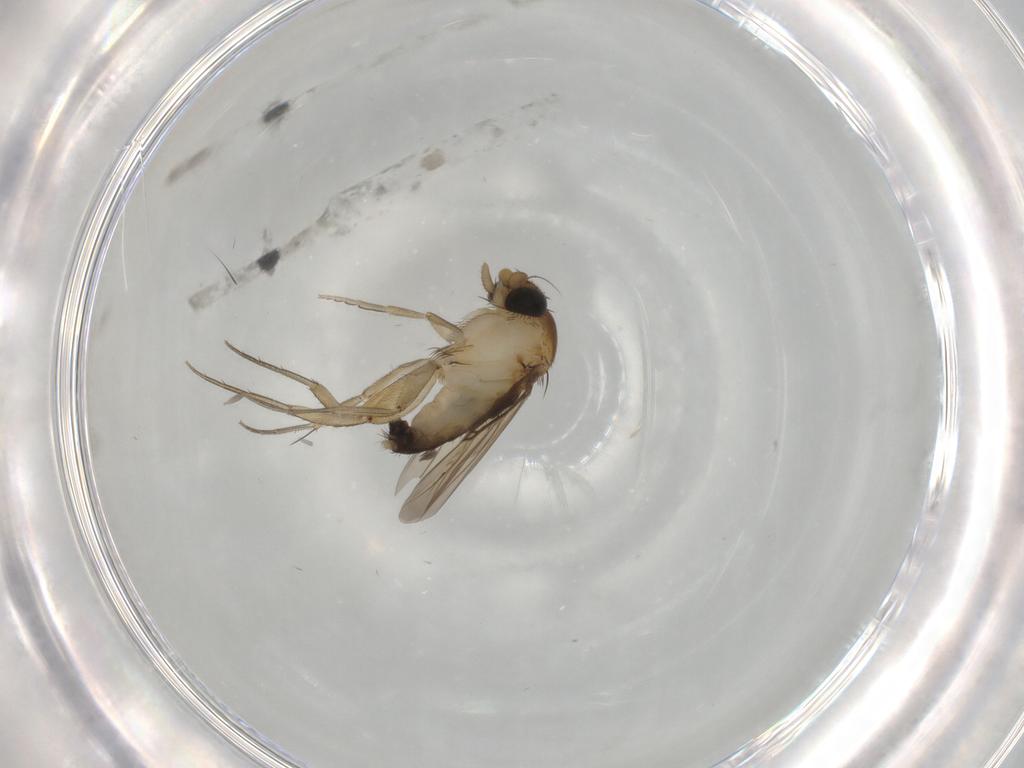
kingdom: Animalia
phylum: Arthropoda
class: Insecta
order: Diptera
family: Phoridae
